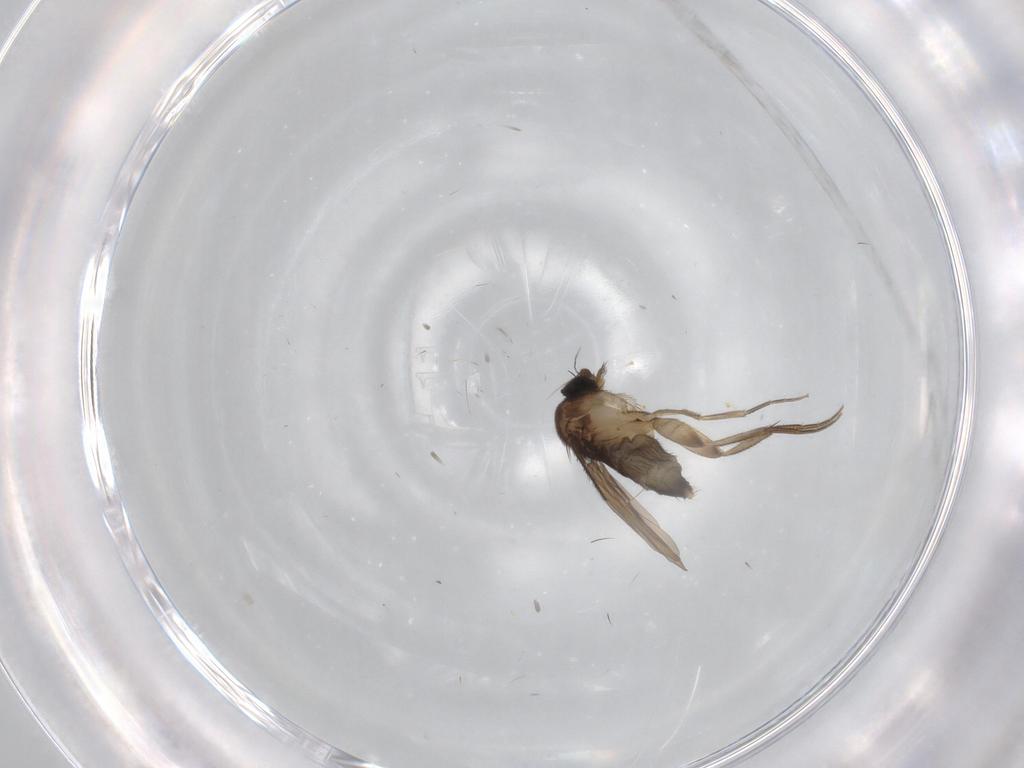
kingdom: Animalia
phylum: Arthropoda
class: Insecta
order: Diptera
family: Phoridae
